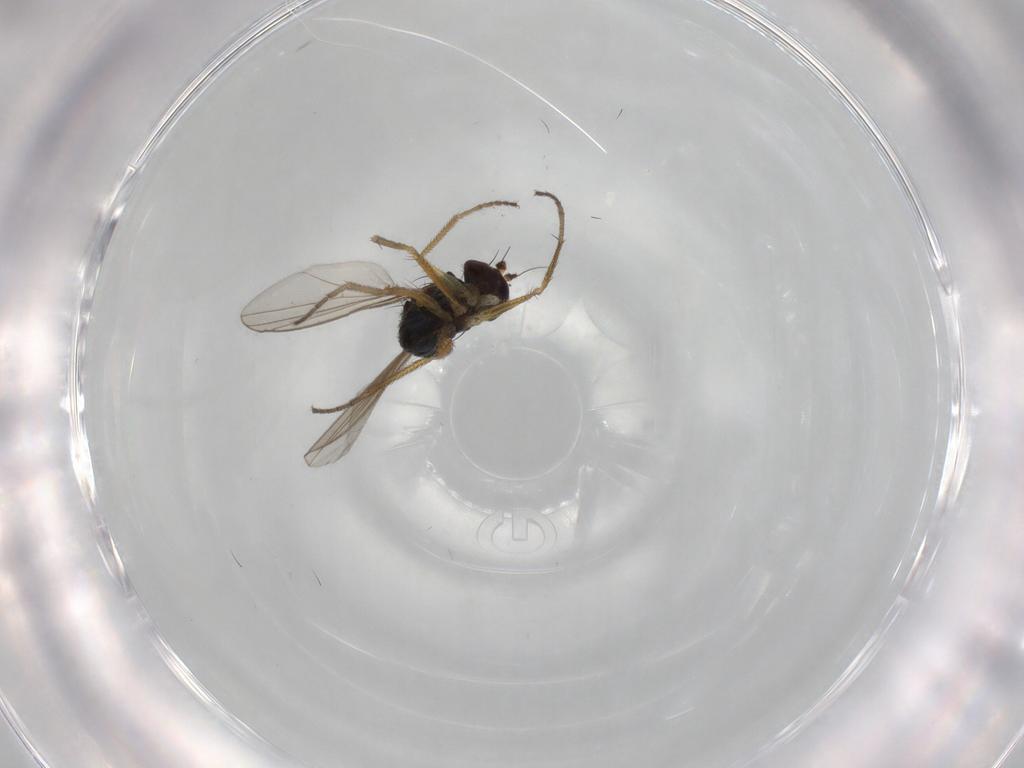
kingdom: Animalia
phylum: Arthropoda
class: Insecta
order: Diptera
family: Dolichopodidae
